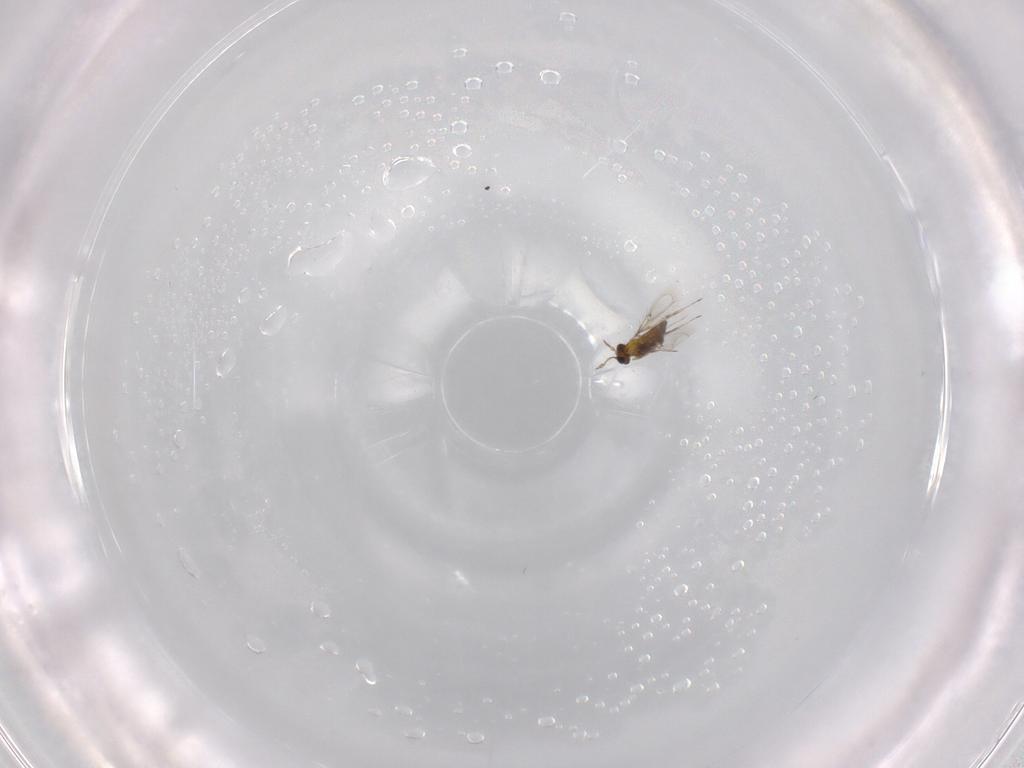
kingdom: Animalia
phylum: Arthropoda
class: Insecta
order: Hymenoptera
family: Trichogrammatidae
